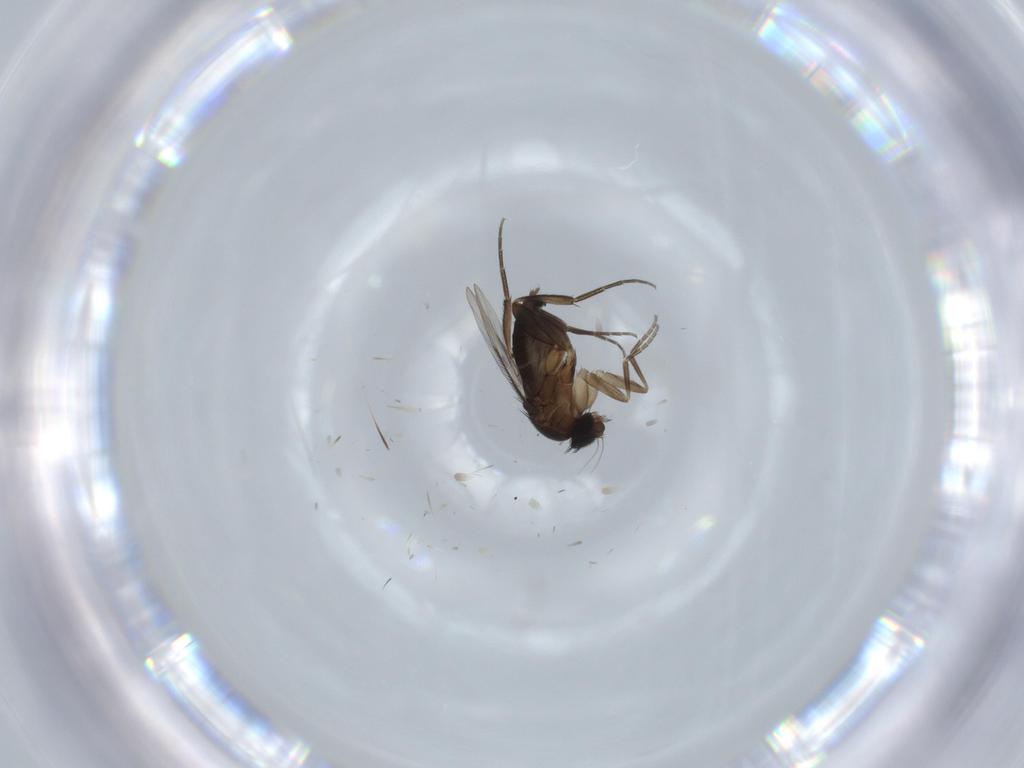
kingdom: Animalia
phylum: Arthropoda
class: Insecta
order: Diptera
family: Phoridae
